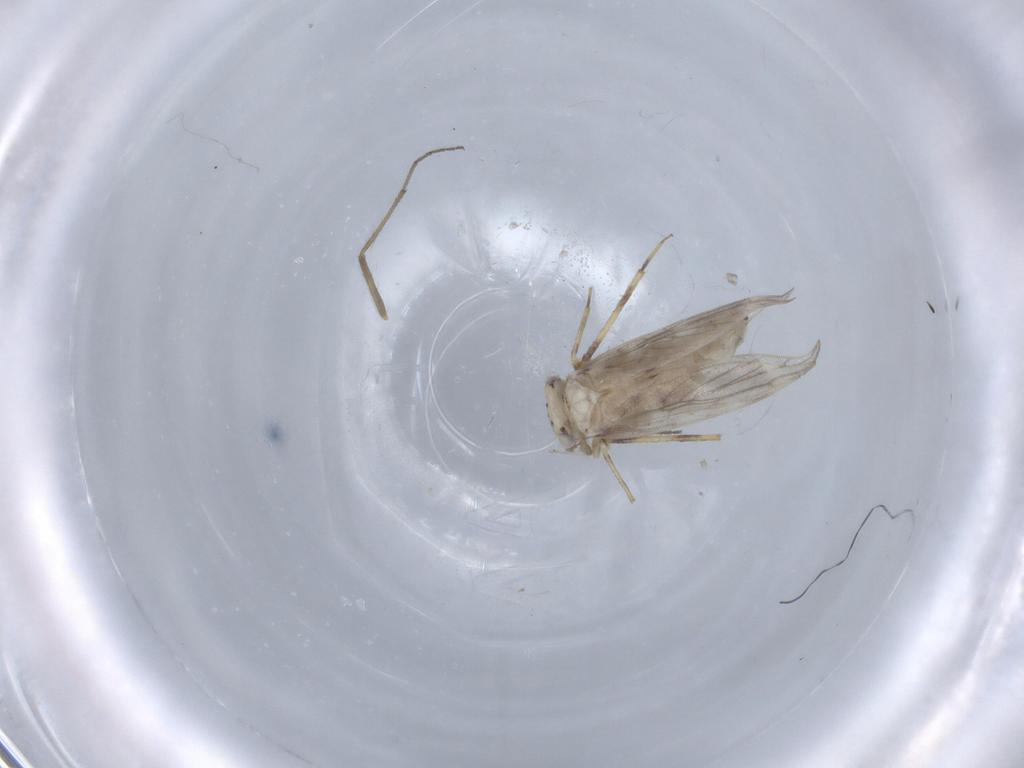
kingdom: Animalia
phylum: Arthropoda
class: Insecta
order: Psocodea
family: Lepidopsocidae
